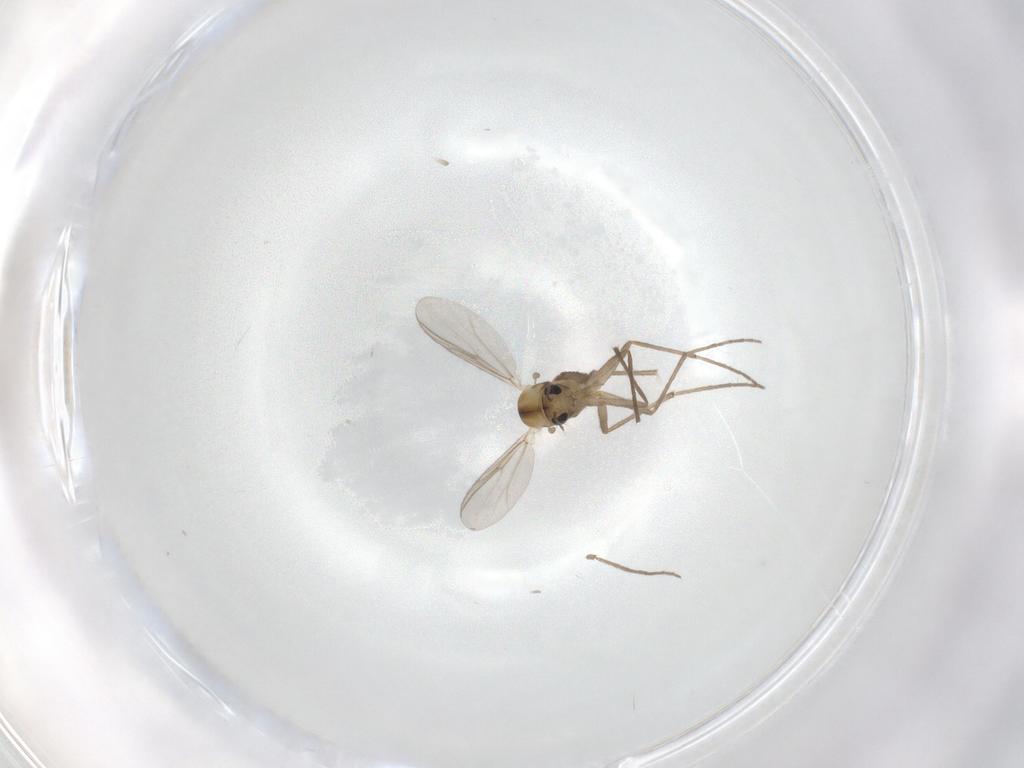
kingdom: Animalia
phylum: Arthropoda
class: Insecta
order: Diptera
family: Chironomidae
